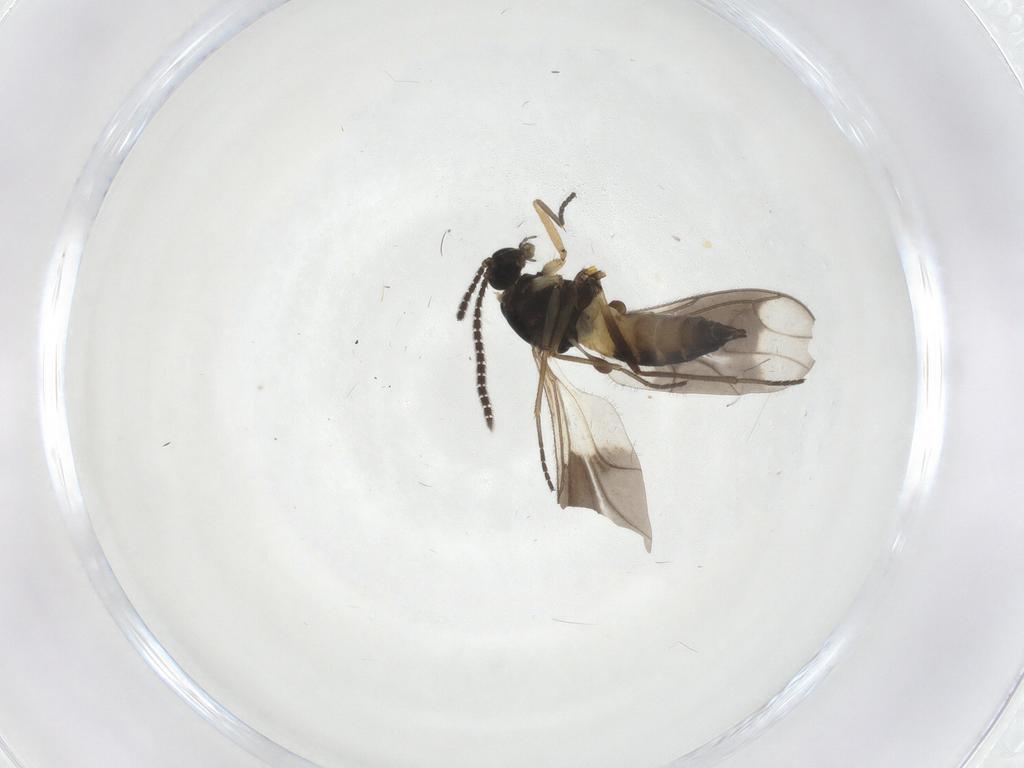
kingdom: Animalia
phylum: Arthropoda
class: Insecta
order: Diptera
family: Sciaridae
